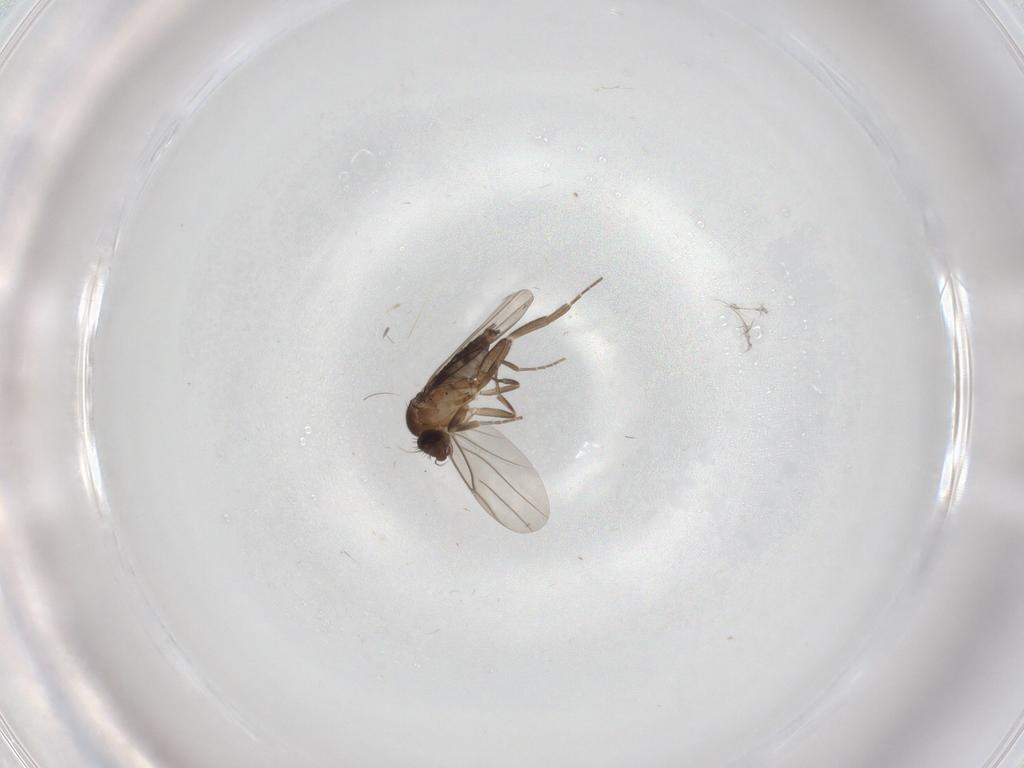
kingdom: Animalia
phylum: Arthropoda
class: Insecta
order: Diptera
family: Sciaridae
